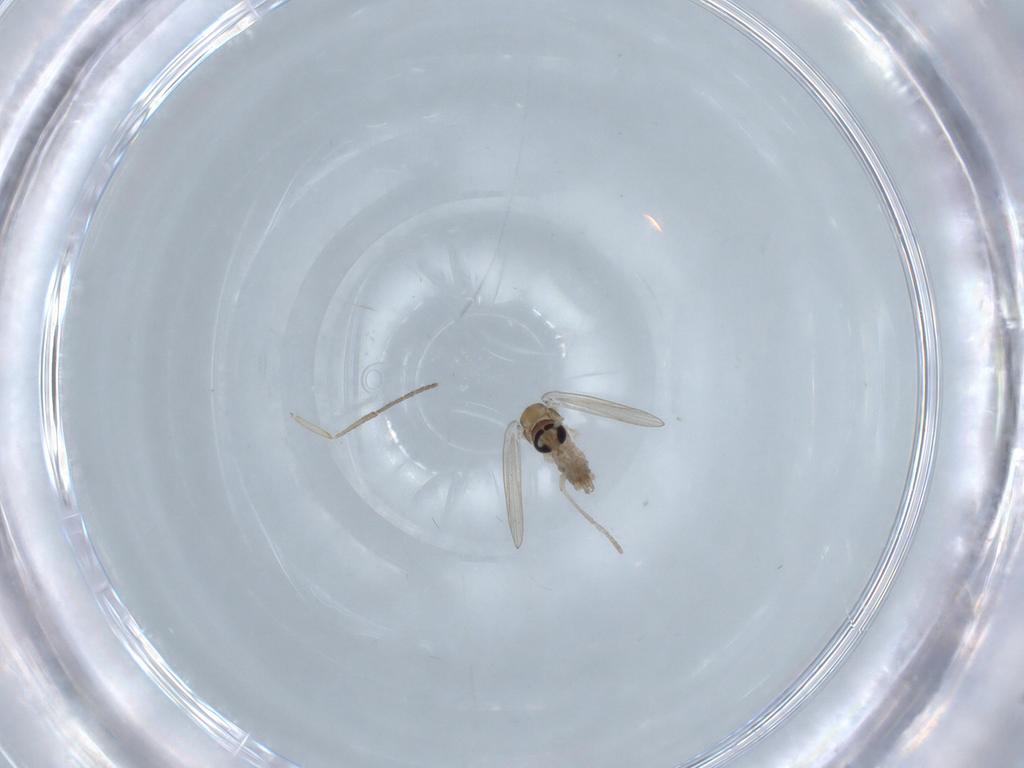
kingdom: Animalia
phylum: Arthropoda
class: Insecta
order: Diptera
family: Psychodidae
